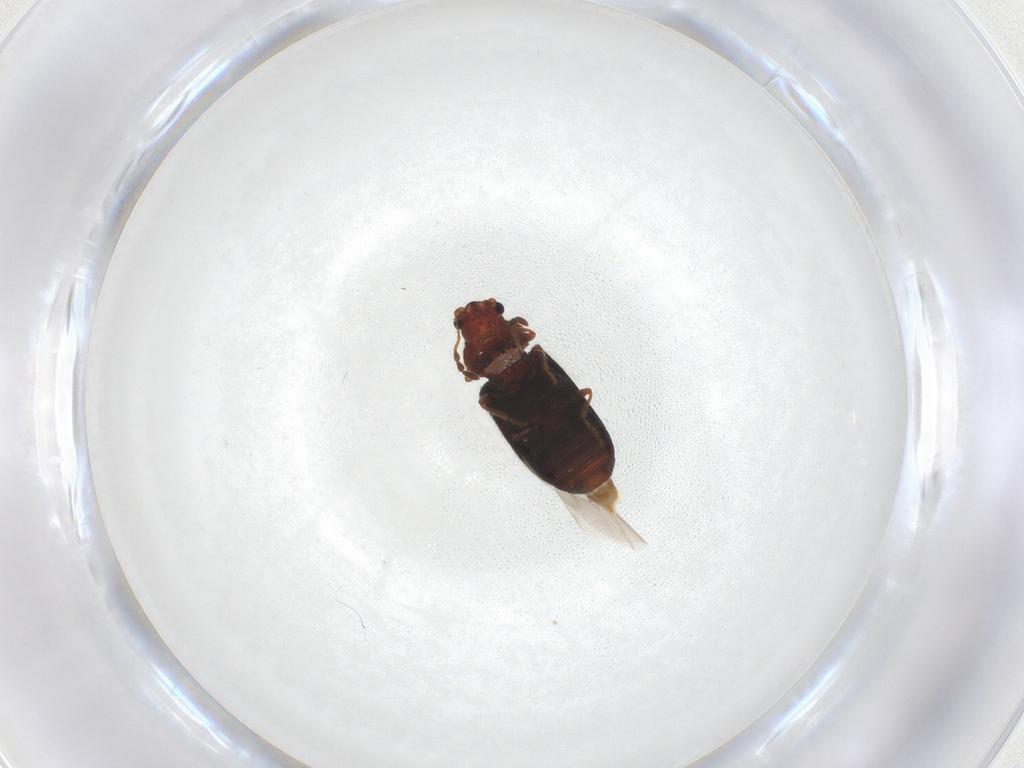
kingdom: Animalia
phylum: Arthropoda
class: Insecta
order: Coleoptera
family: Ptinidae
